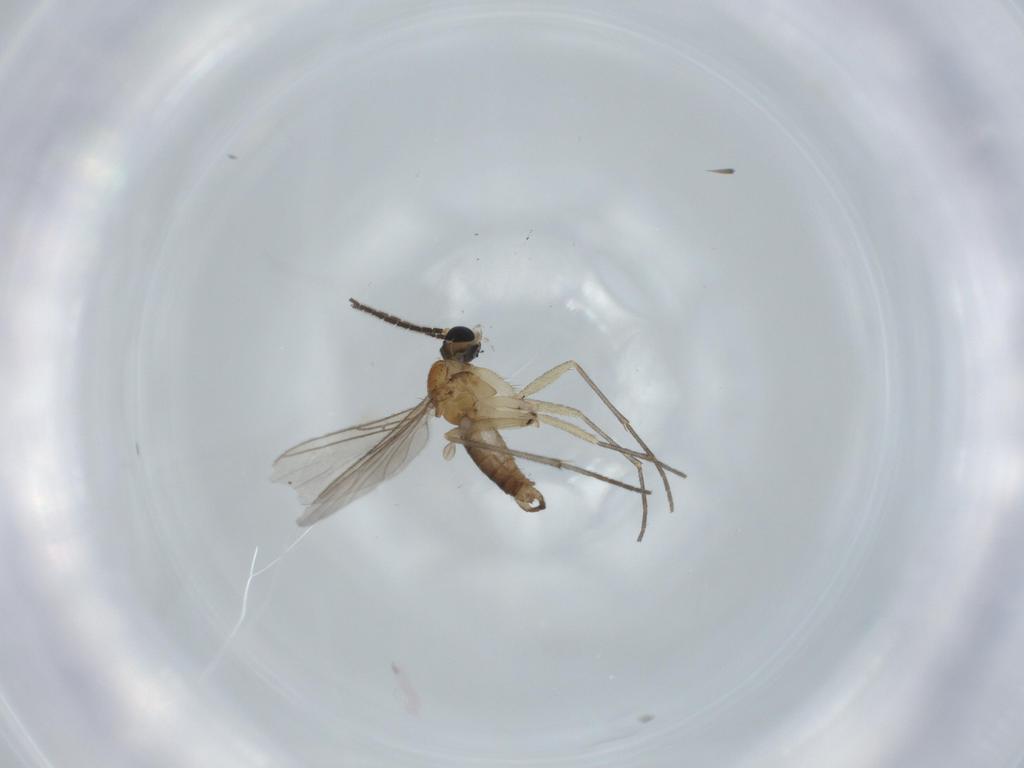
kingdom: Animalia
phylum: Arthropoda
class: Insecta
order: Diptera
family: Sciaridae
